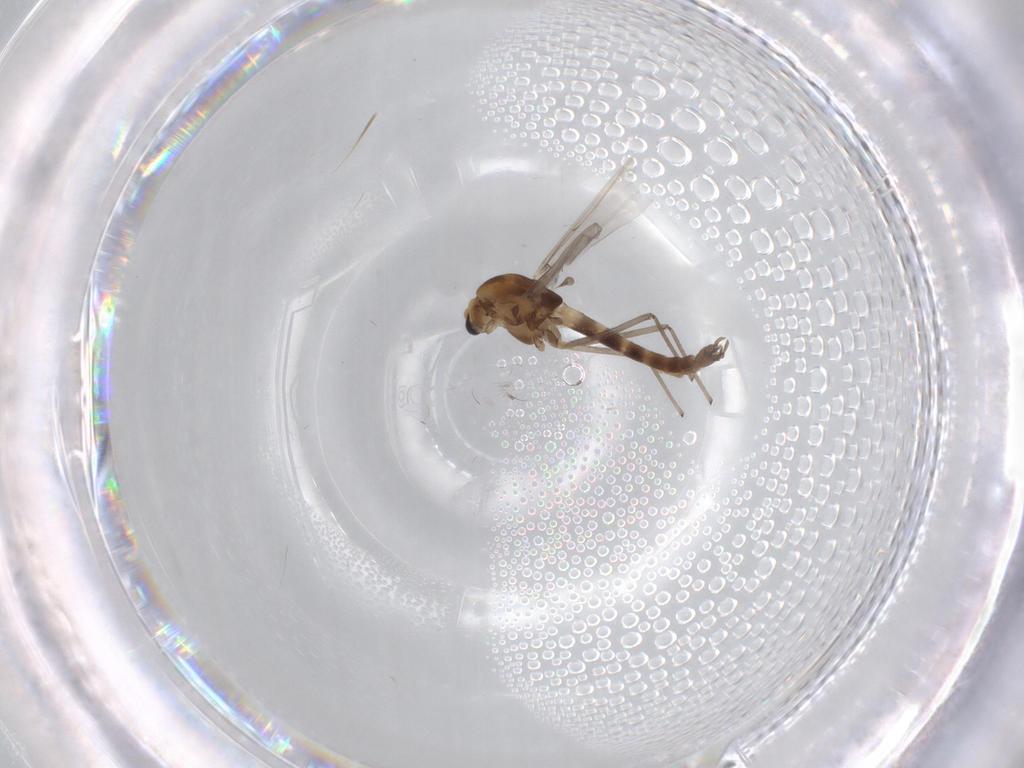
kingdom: Animalia
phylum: Arthropoda
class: Insecta
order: Diptera
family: Chironomidae
